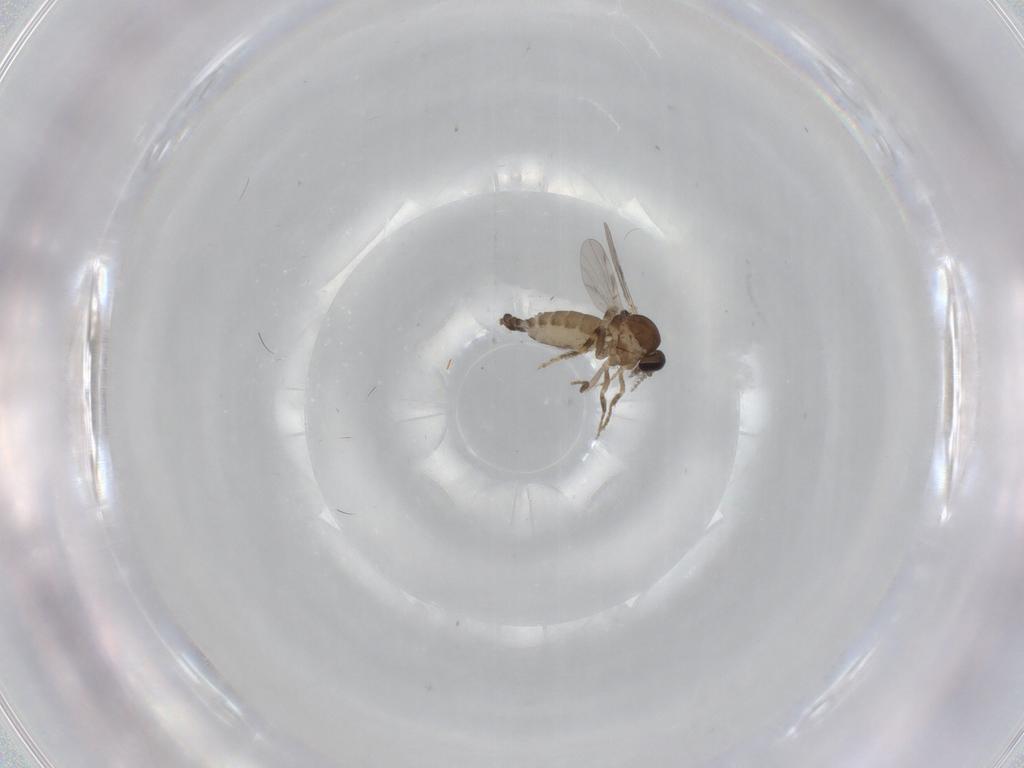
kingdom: Animalia
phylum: Arthropoda
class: Insecta
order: Diptera
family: Ceratopogonidae
